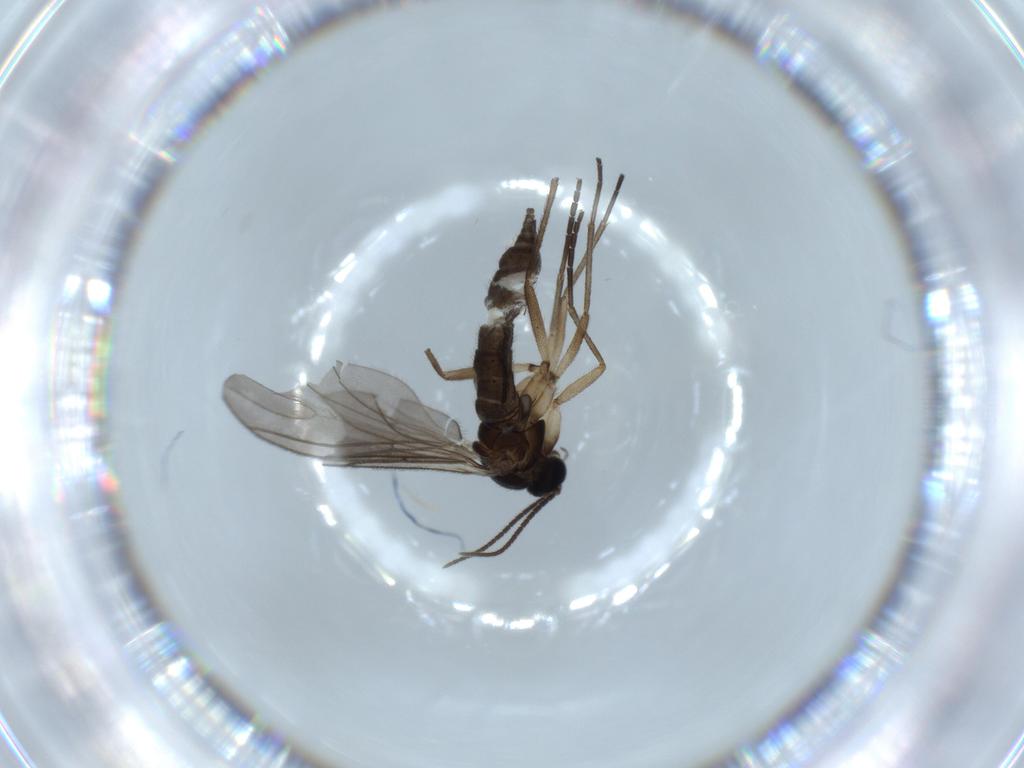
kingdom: Animalia
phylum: Arthropoda
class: Insecta
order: Diptera
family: Sciaridae
